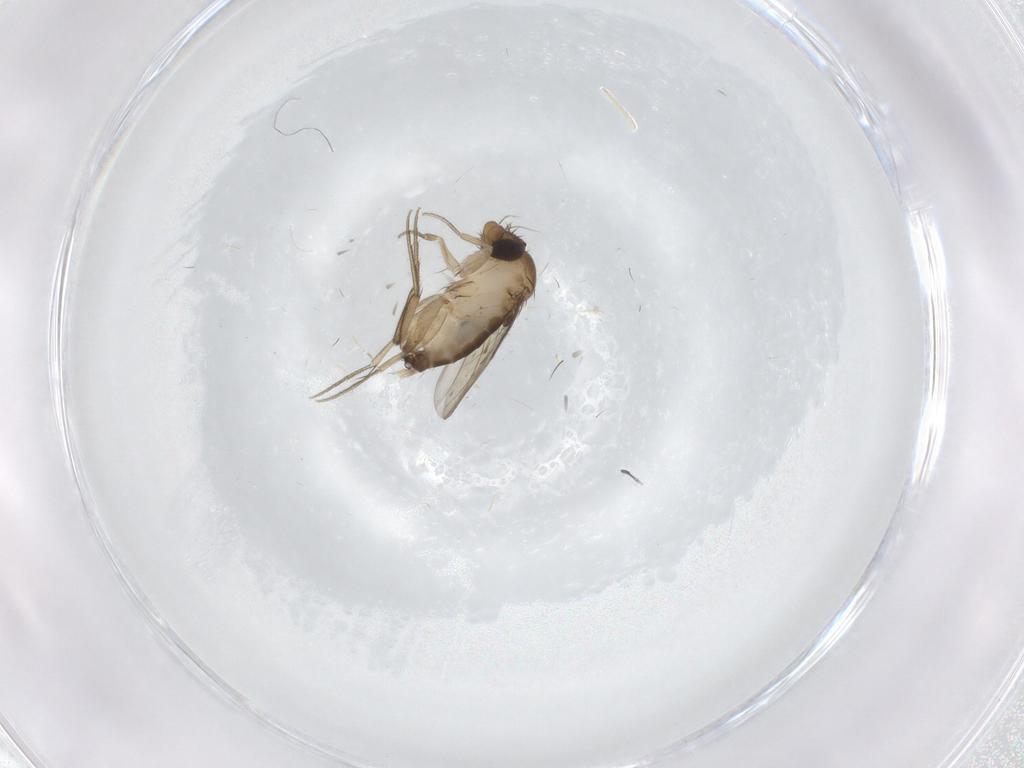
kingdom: Animalia
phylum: Arthropoda
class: Insecta
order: Diptera
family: Phoridae
